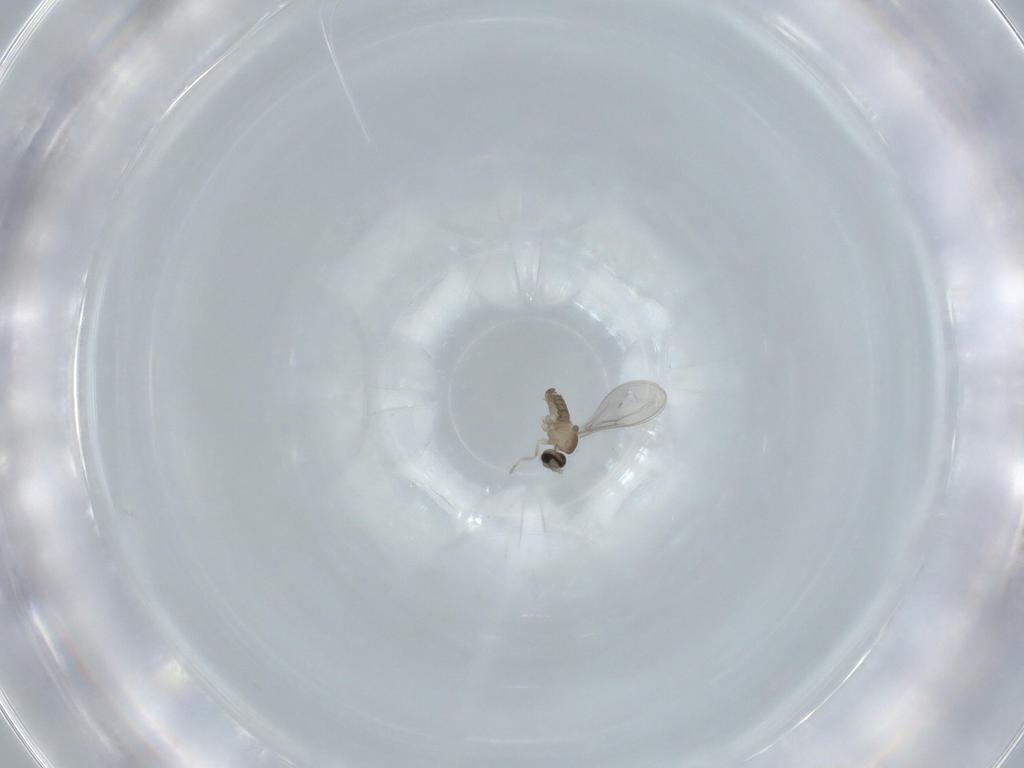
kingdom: Animalia
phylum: Arthropoda
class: Insecta
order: Diptera
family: Cecidomyiidae
